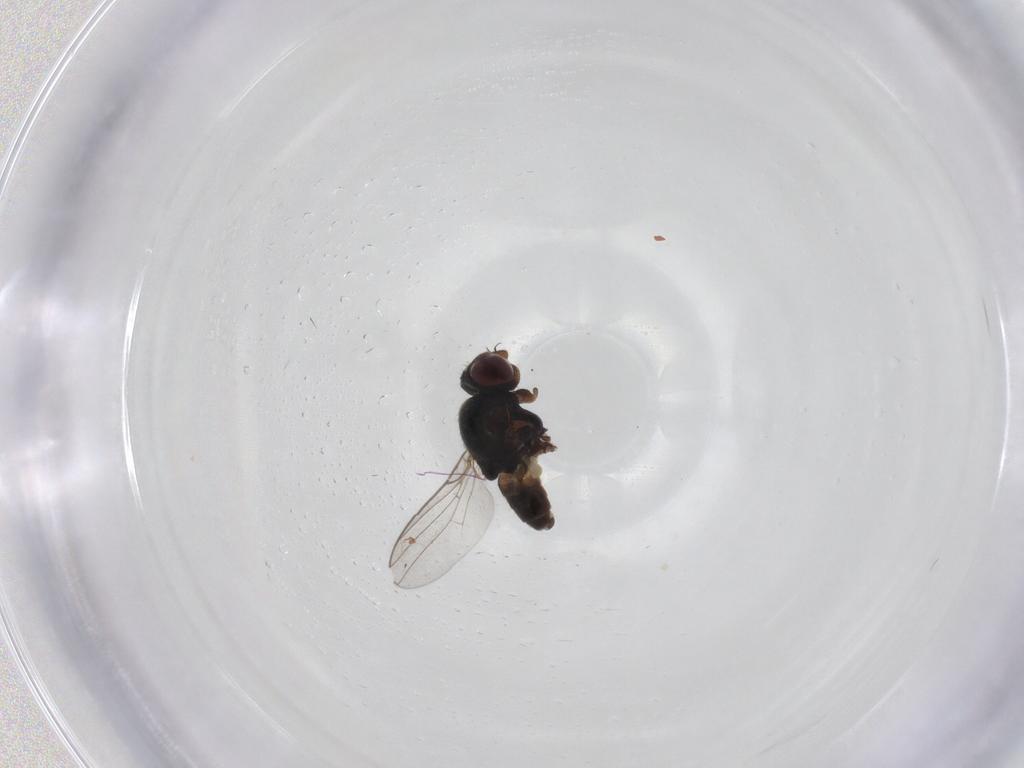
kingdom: Animalia
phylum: Arthropoda
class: Insecta
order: Diptera
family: Chloropidae
